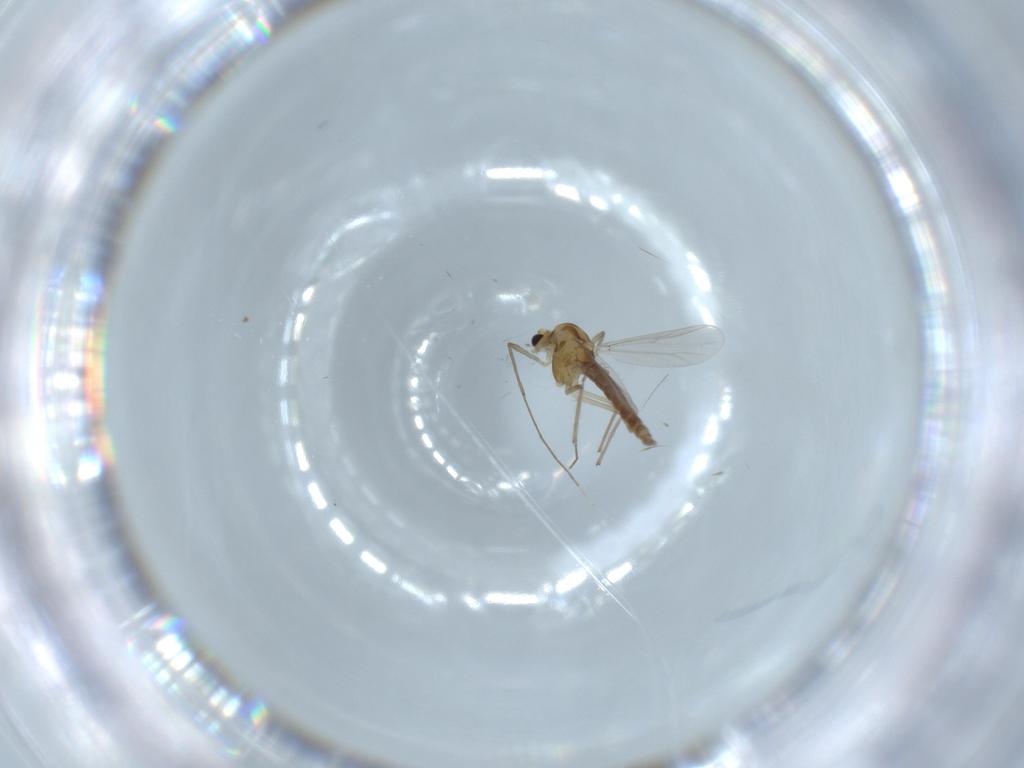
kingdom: Animalia
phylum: Arthropoda
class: Insecta
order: Diptera
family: Chironomidae
